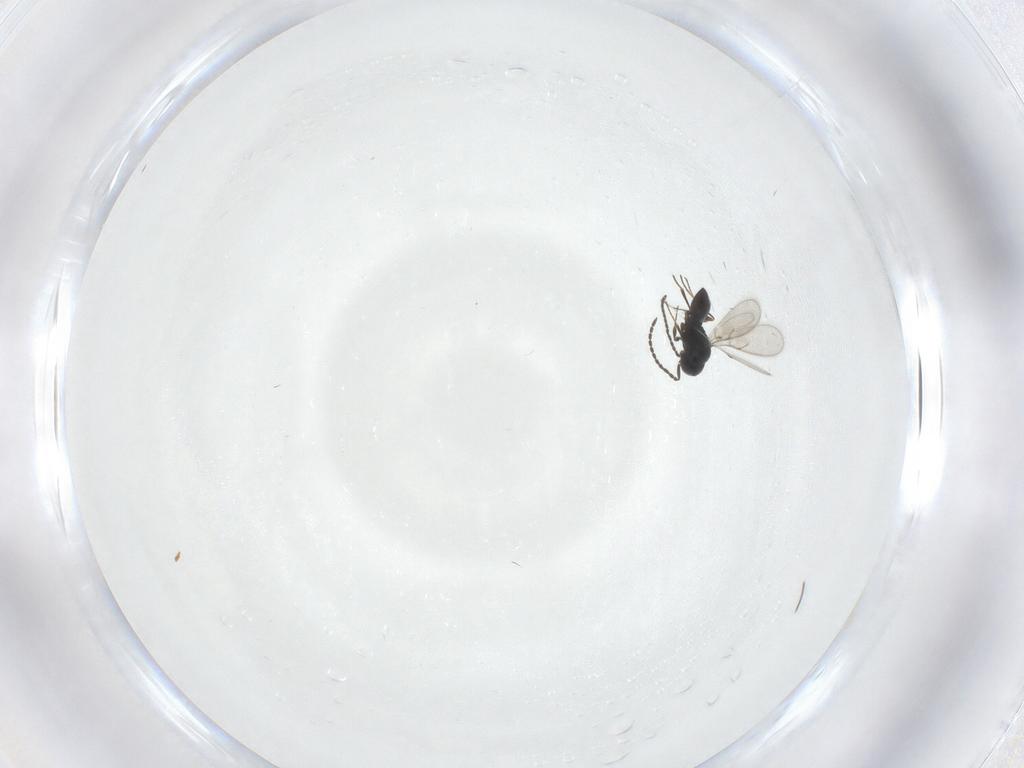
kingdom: Animalia
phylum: Arthropoda
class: Insecta
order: Hymenoptera
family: Scelionidae
